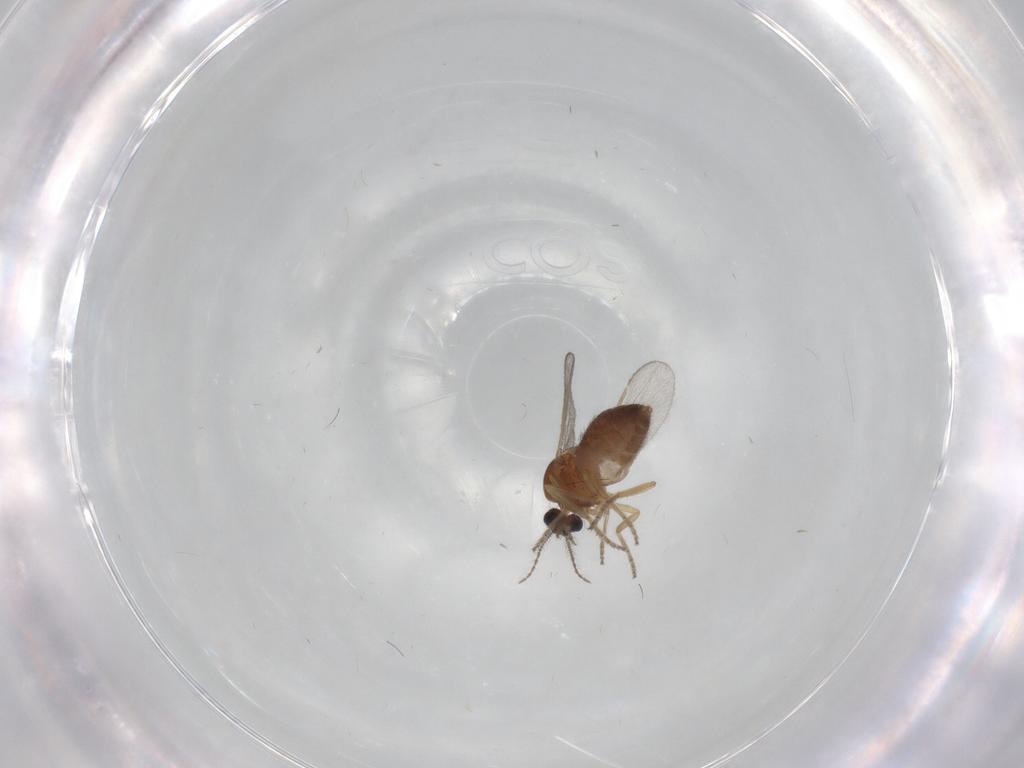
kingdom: Animalia
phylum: Arthropoda
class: Insecta
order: Diptera
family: Ceratopogonidae
